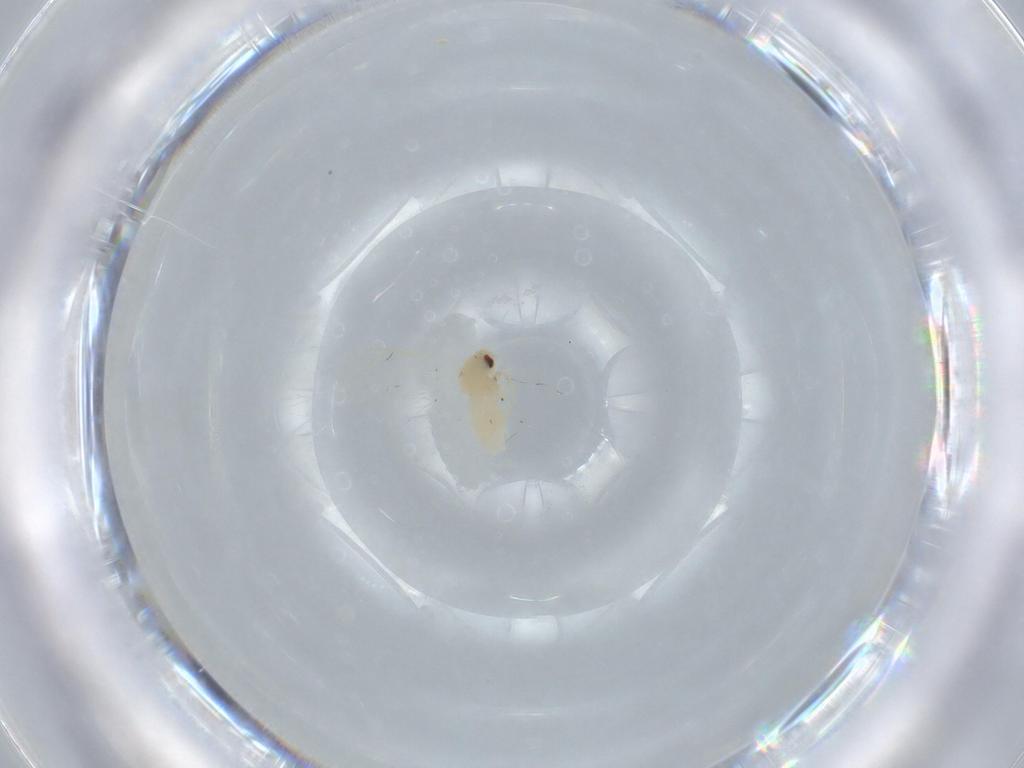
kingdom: Animalia
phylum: Arthropoda
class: Insecta
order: Hemiptera
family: Aleyrodidae
